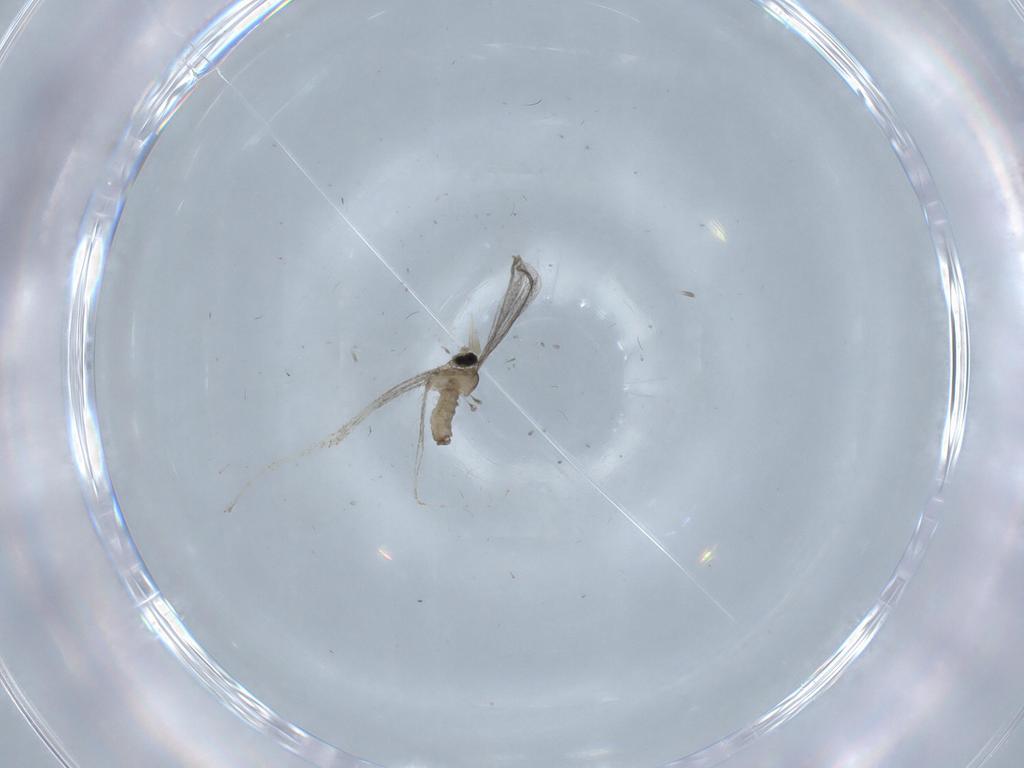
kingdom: Animalia
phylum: Arthropoda
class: Insecta
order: Diptera
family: Cecidomyiidae
